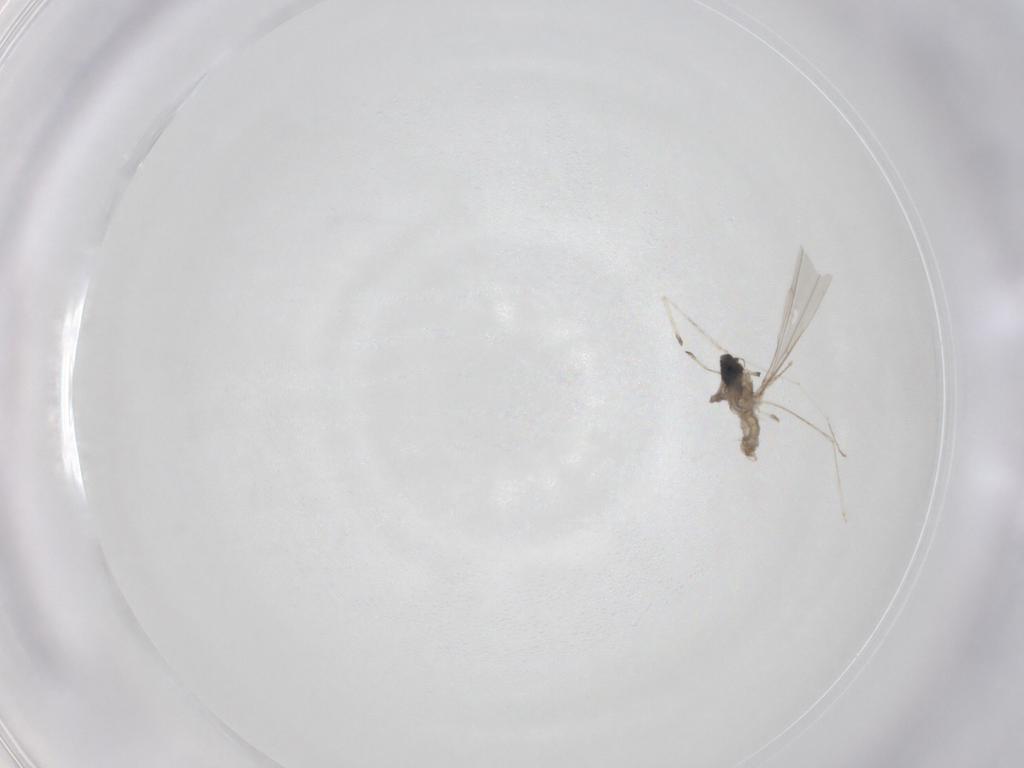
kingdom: Animalia
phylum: Arthropoda
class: Insecta
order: Diptera
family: Cecidomyiidae
